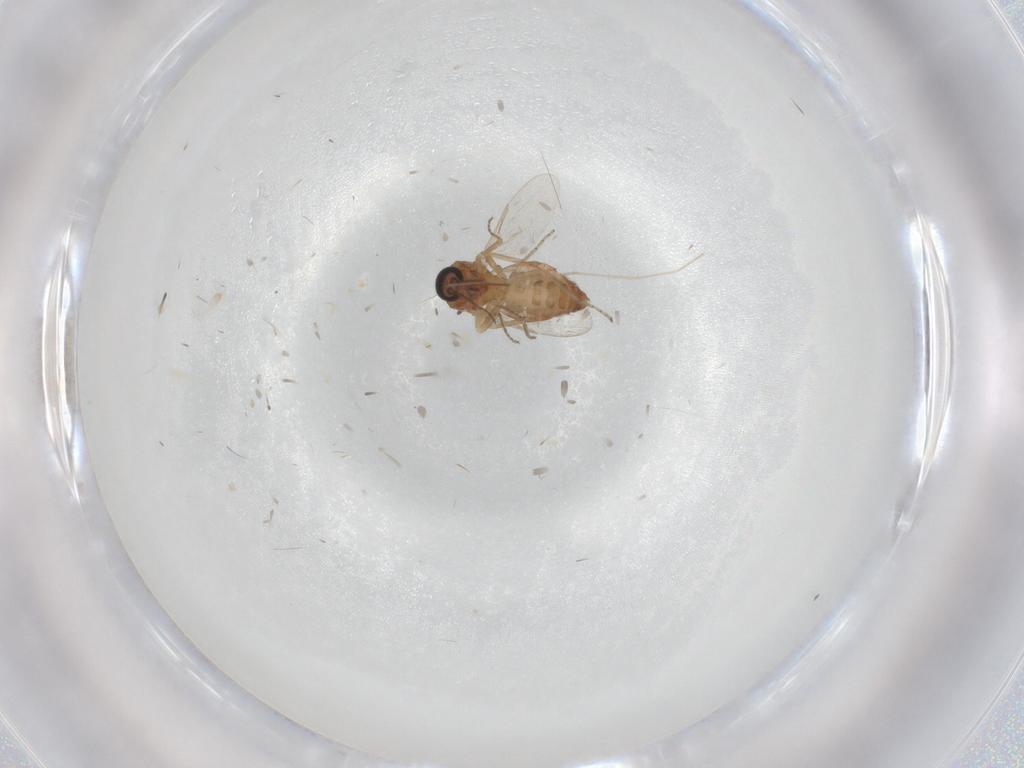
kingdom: Animalia
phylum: Arthropoda
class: Insecta
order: Diptera
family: Ceratopogonidae
